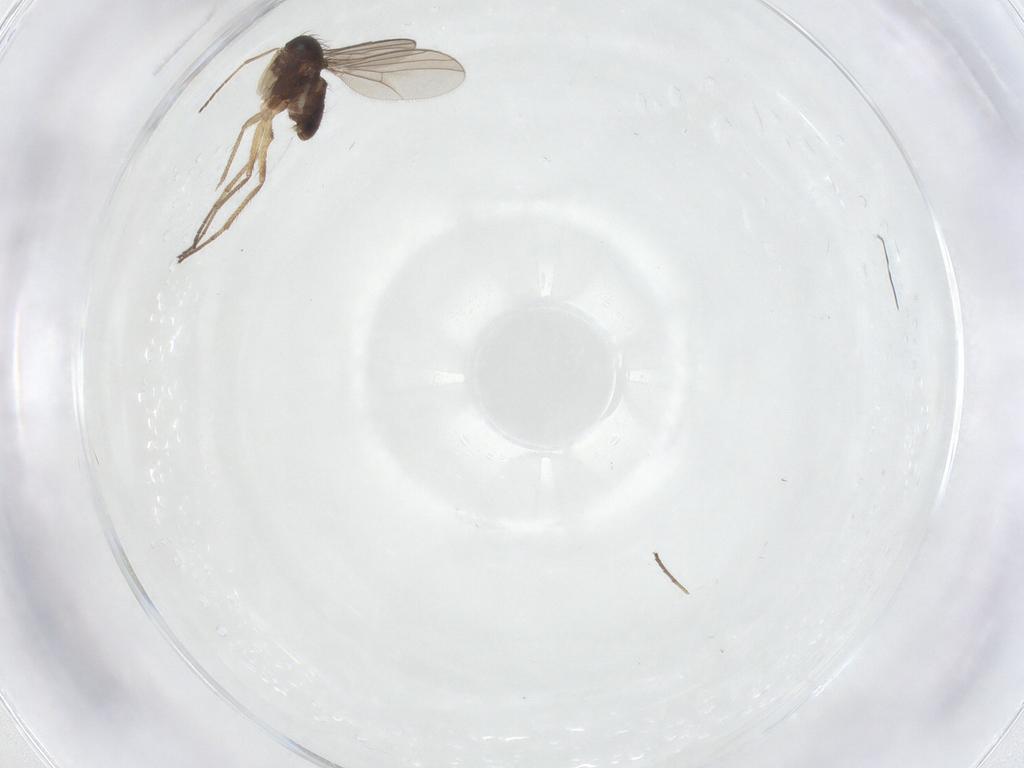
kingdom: Animalia
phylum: Arthropoda
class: Insecta
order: Diptera
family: Dolichopodidae
